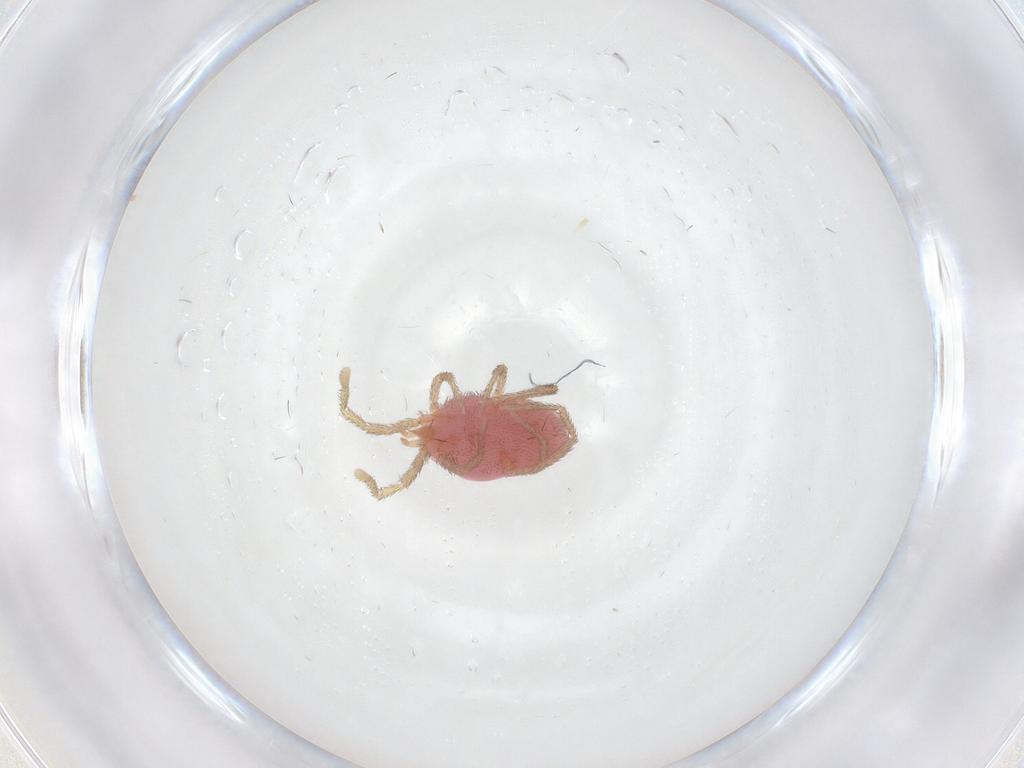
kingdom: Animalia
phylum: Arthropoda
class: Arachnida
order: Trombidiformes
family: Erythraeidae
